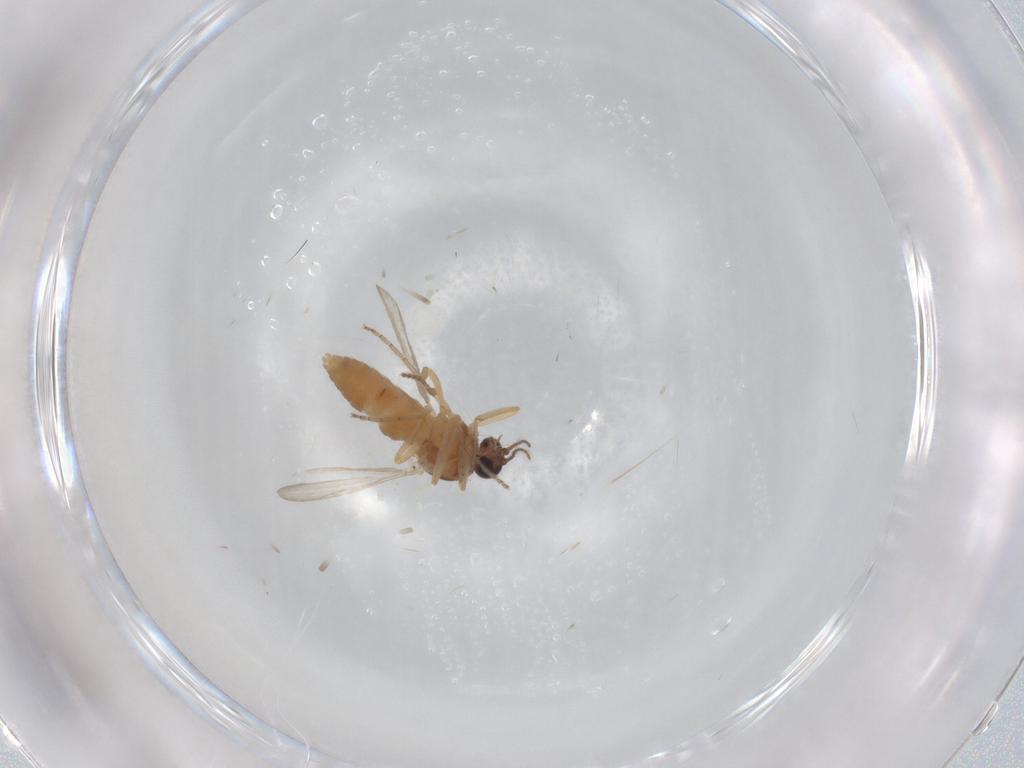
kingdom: Animalia
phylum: Arthropoda
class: Insecta
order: Diptera
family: Ceratopogonidae
